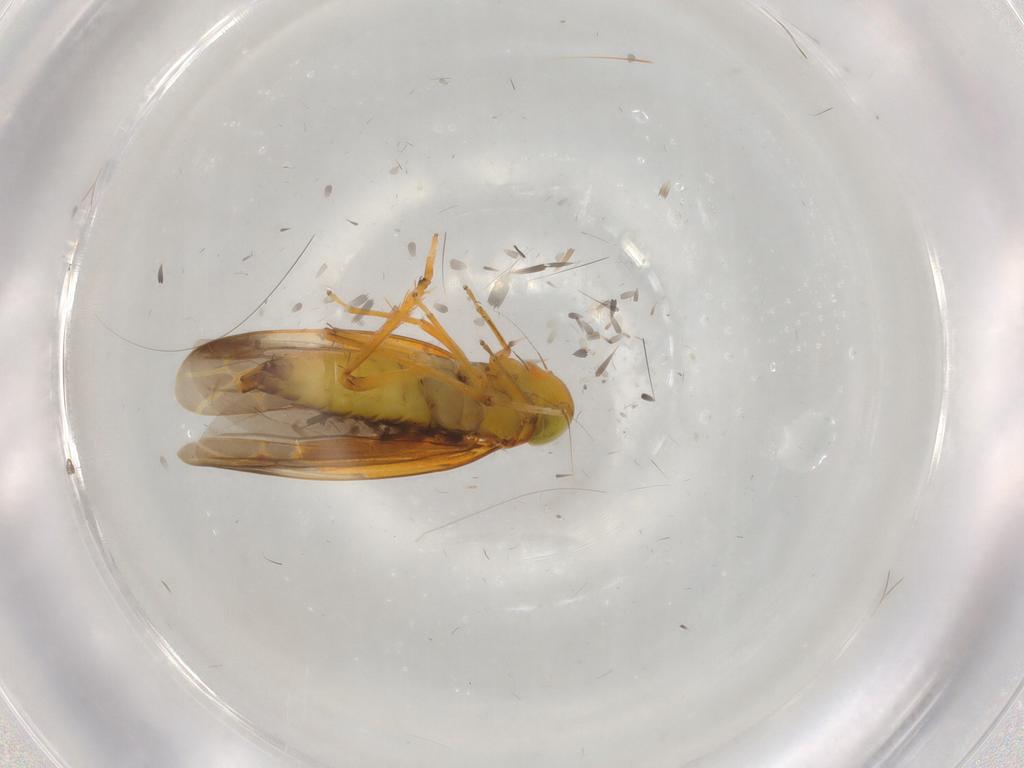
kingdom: Animalia
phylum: Arthropoda
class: Insecta
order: Hemiptera
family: Cicadellidae
